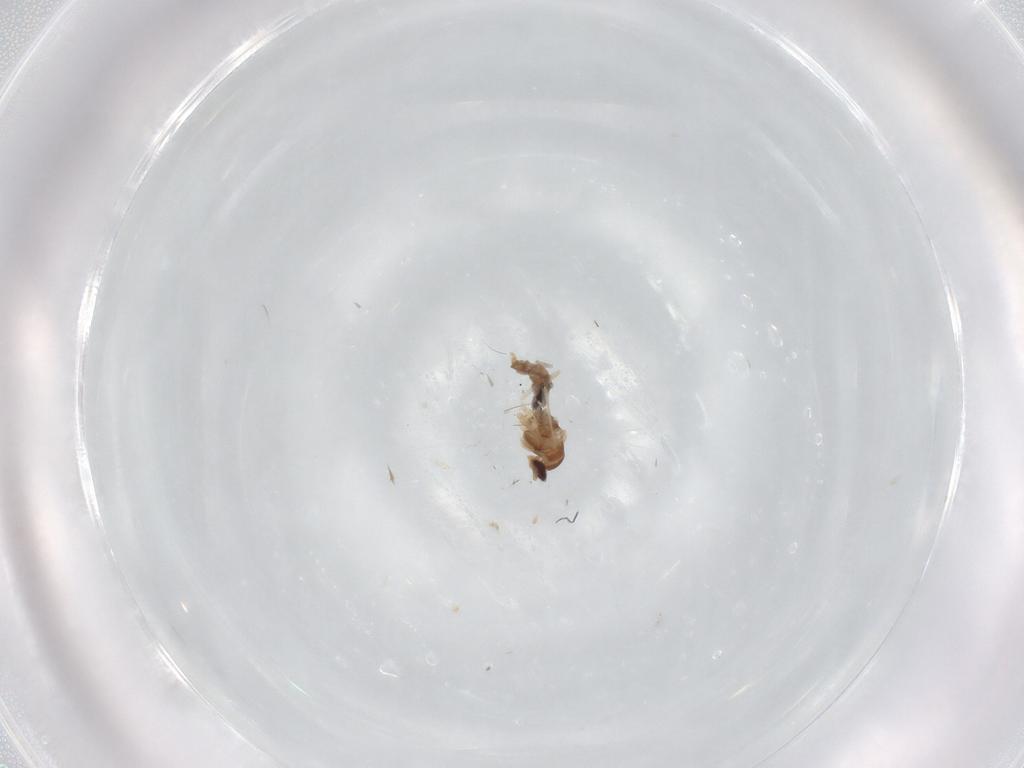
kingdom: Animalia
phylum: Arthropoda
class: Insecta
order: Diptera
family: Cecidomyiidae
